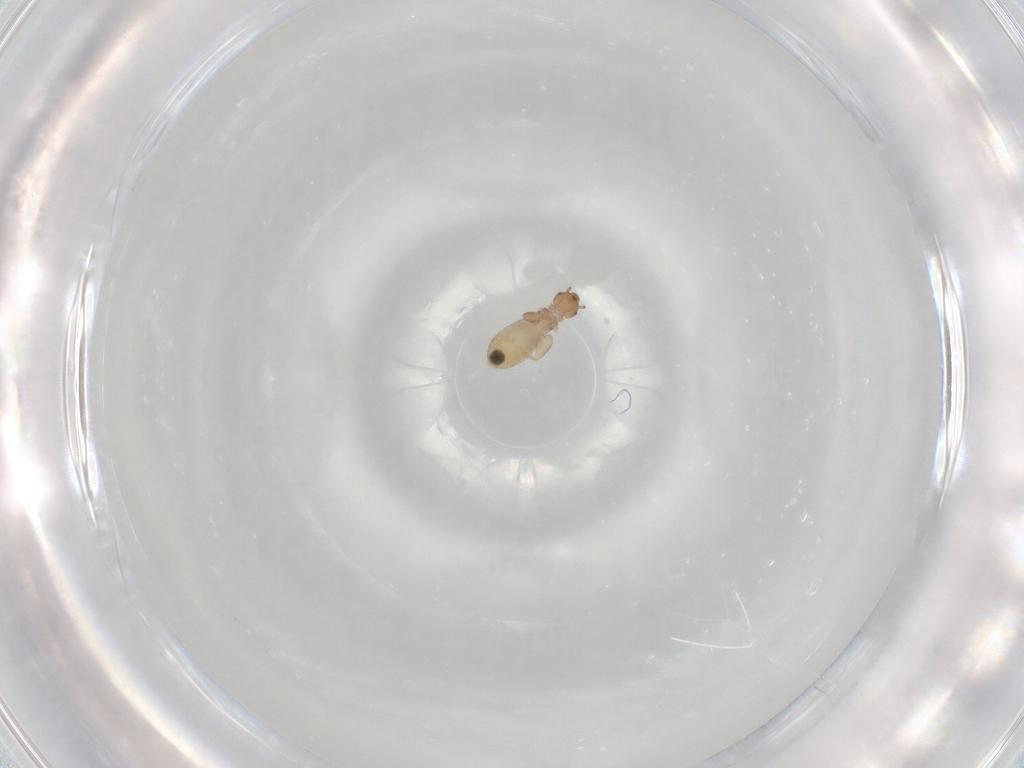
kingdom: Animalia
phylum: Arthropoda
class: Insecta
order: Psocodea
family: Liposcelididae
